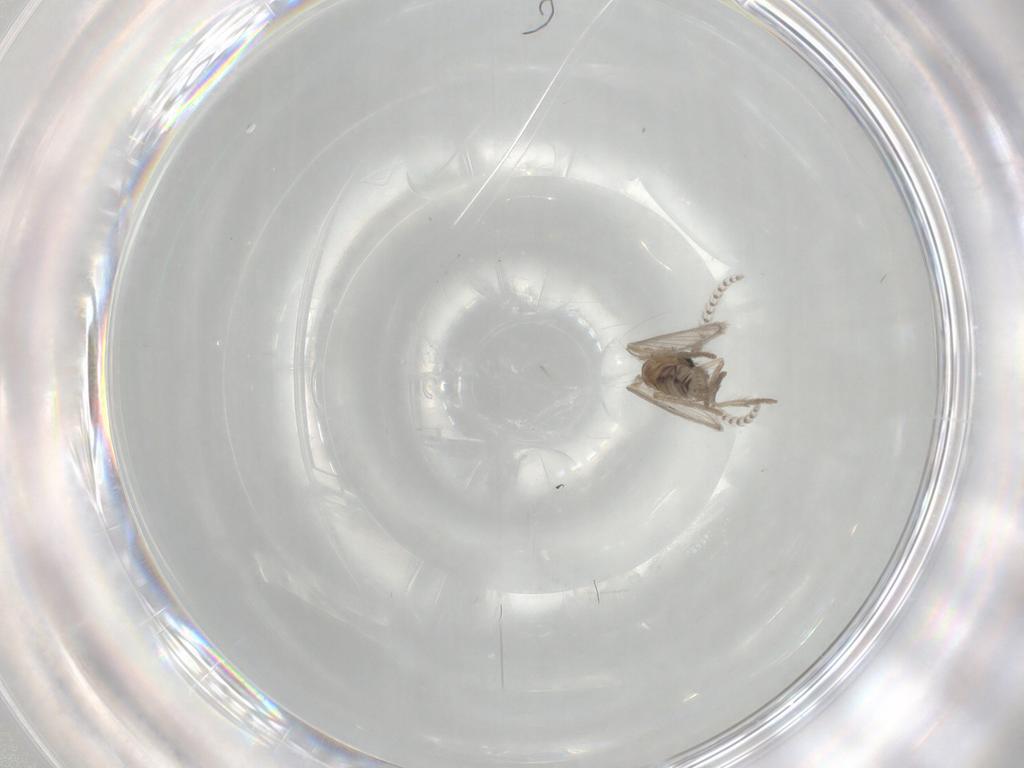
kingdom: Animalia
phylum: Arthropoda
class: Insecta
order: Diptera
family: Psychodidae
